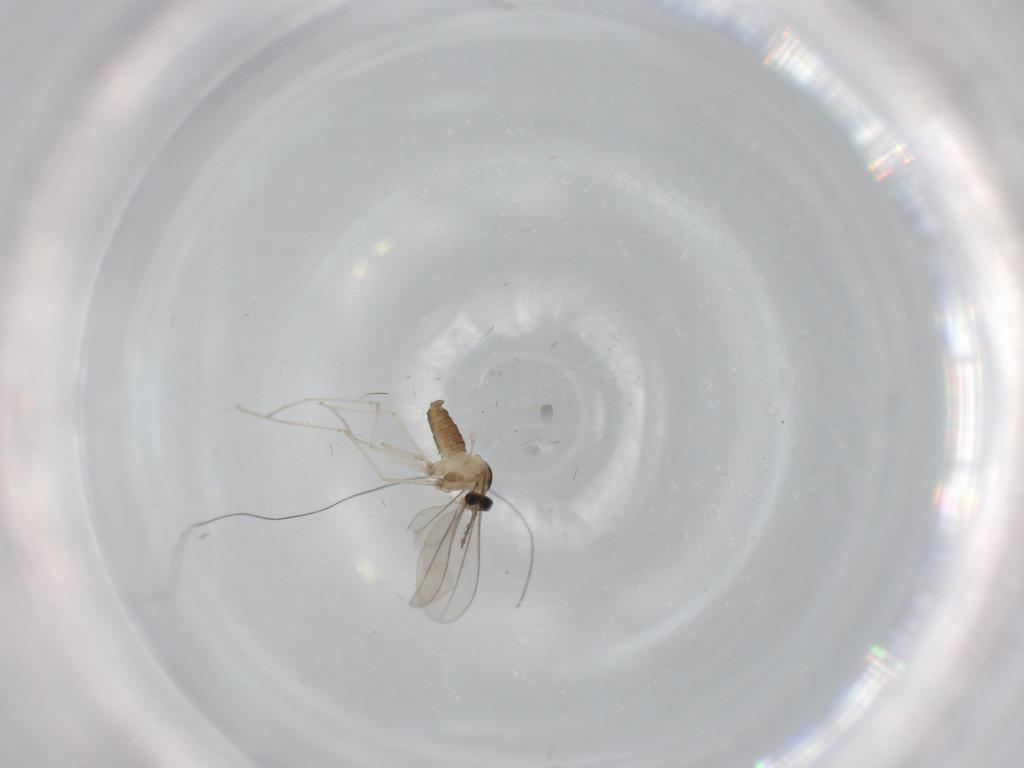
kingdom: Animalia
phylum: Arthropoda
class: Insecta
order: Diptera
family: Cecidomyiidae
